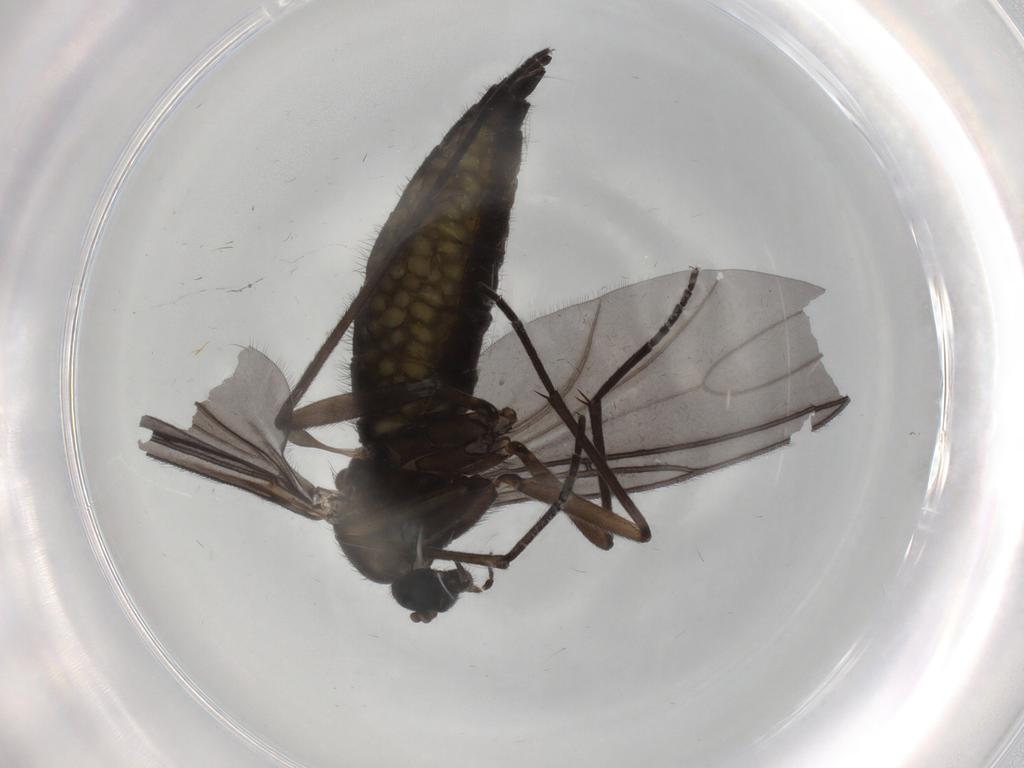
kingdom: Animalia
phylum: Arthropoda
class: Insecta
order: Diptera
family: Sciaridae
